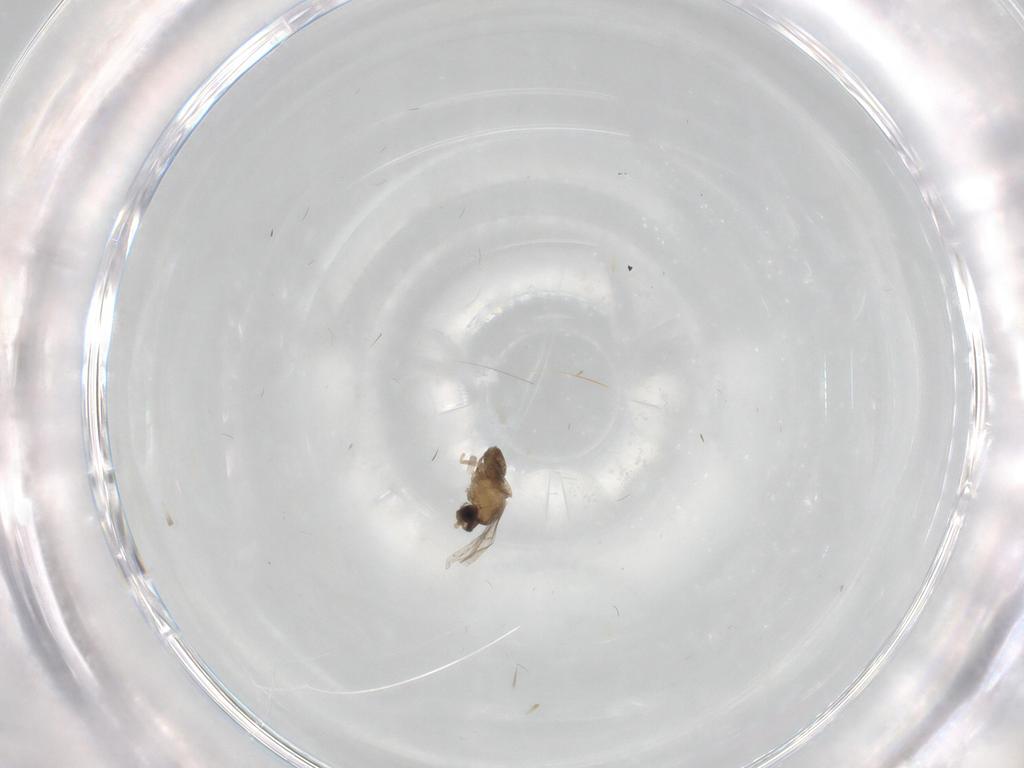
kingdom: Animalia
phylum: Arthropoda
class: Insecta
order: Diptera
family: Cecidomyiidae
